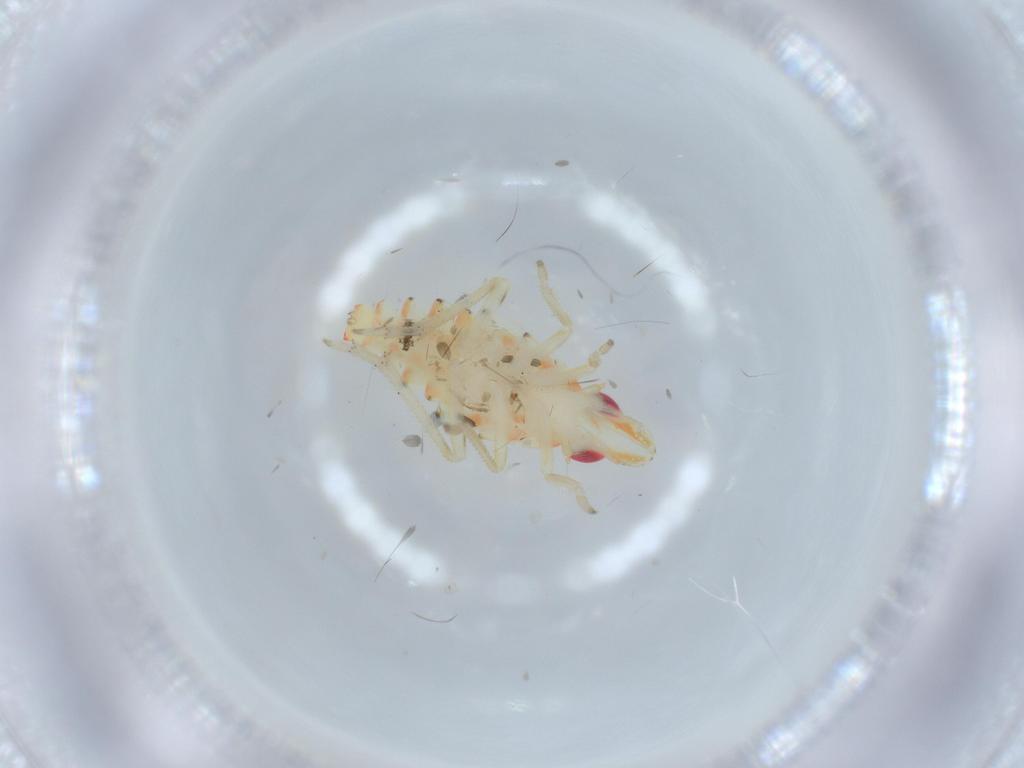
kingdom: Animalia
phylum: Arthropoda
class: Insecta
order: Hemiptera
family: Tropiduchidae
